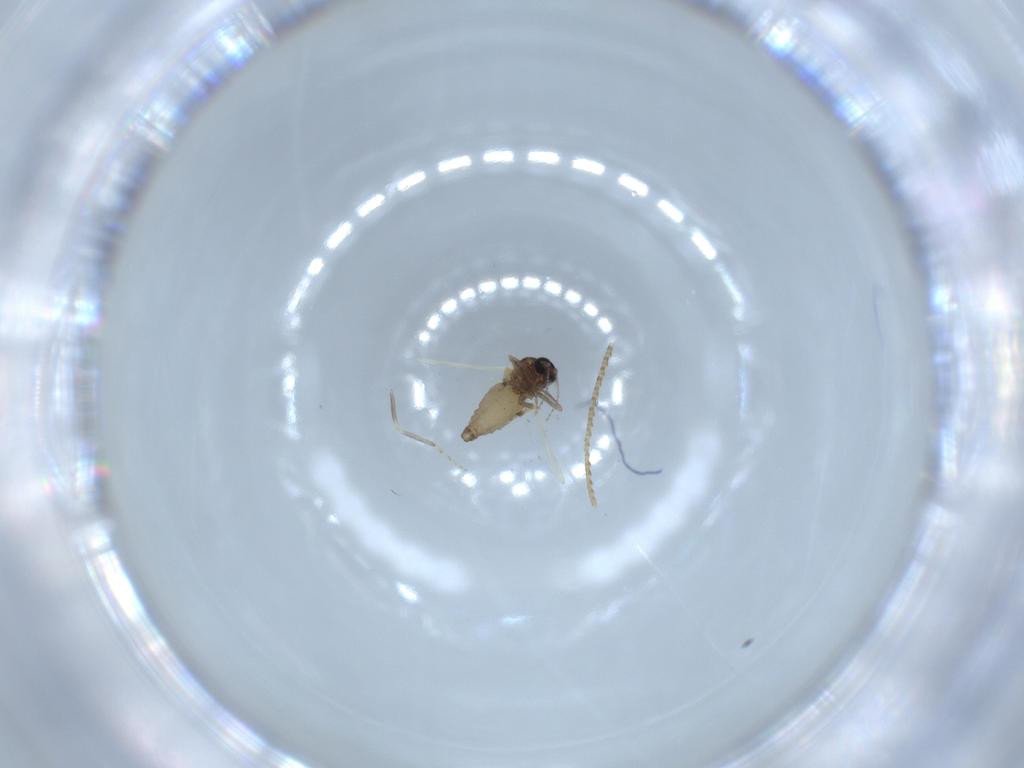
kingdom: Animalia
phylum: Arthropoda
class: Insecta
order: Diptera
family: Ceratopogonidae
